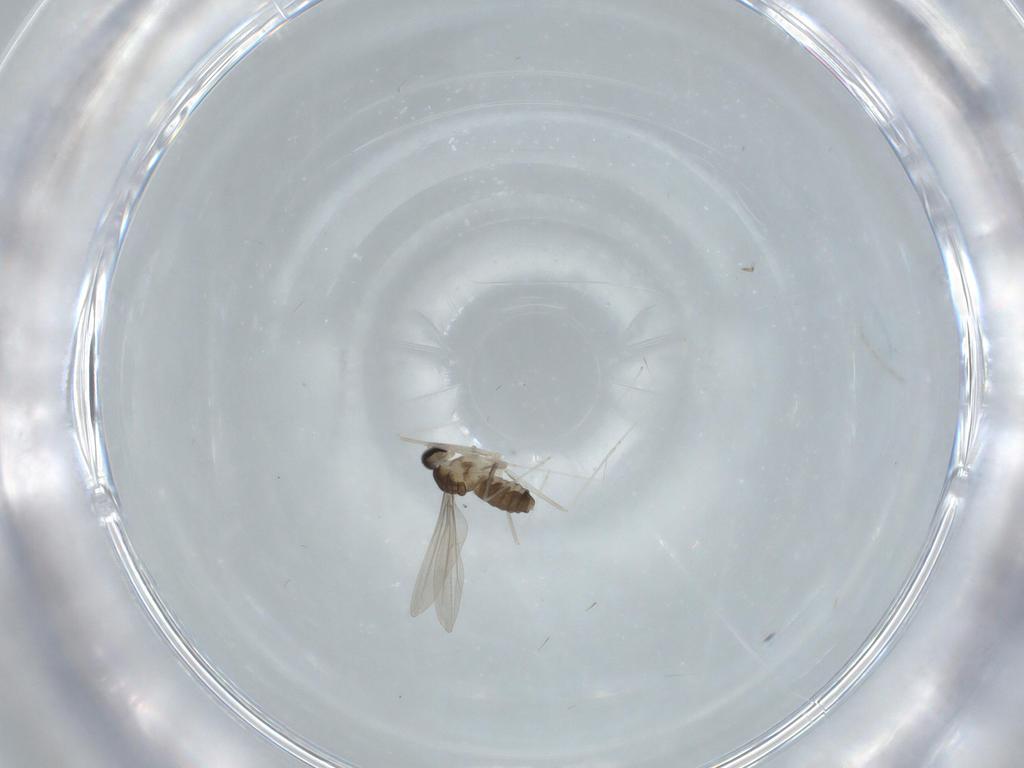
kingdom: Animalia
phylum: Arthropoda
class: Insecta
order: Diptera
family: Cecidomyiidae
